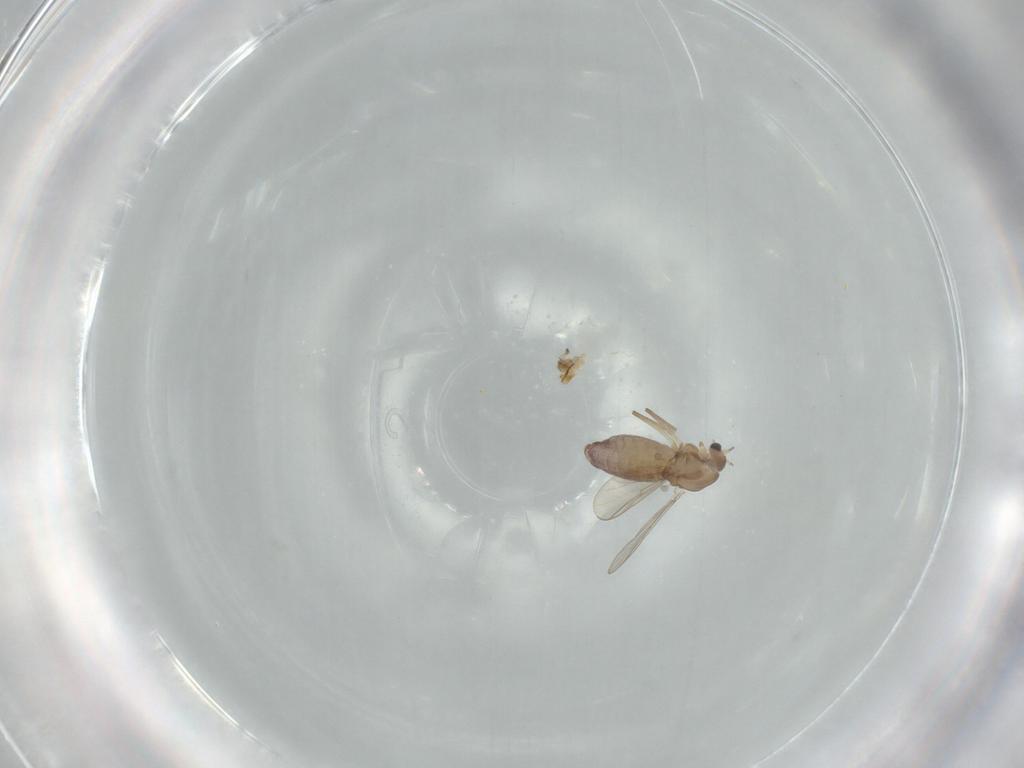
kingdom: Animalia
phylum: Arthropoda
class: Insecta
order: Diptera
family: Chironomidae
